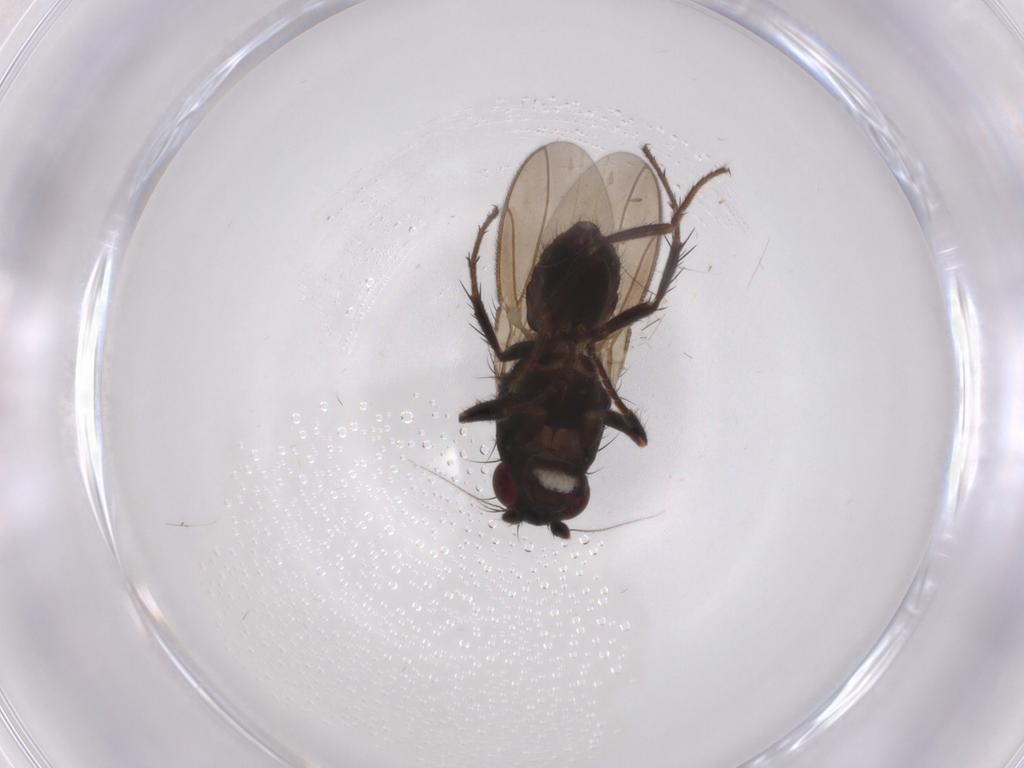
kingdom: Animalia
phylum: Arthropoda
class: Insecta
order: Diptera
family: Sphaeroceridae
